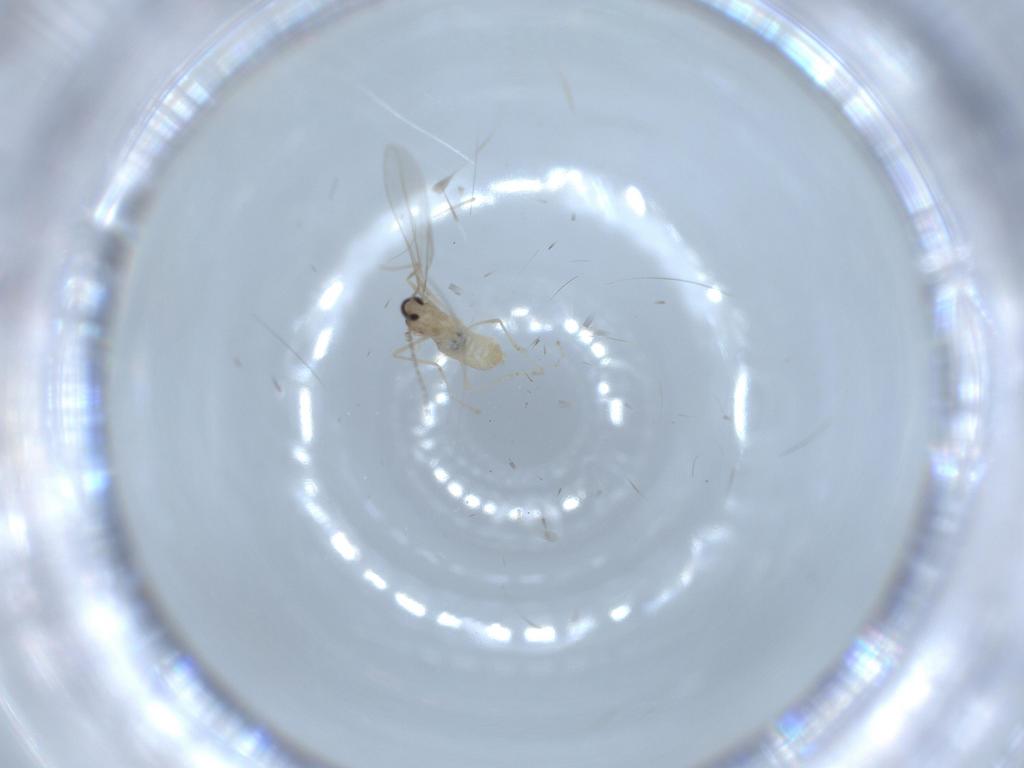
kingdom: Animalia
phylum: Arthropoda
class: Insecta
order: Diptera
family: Cecidomyiidae
